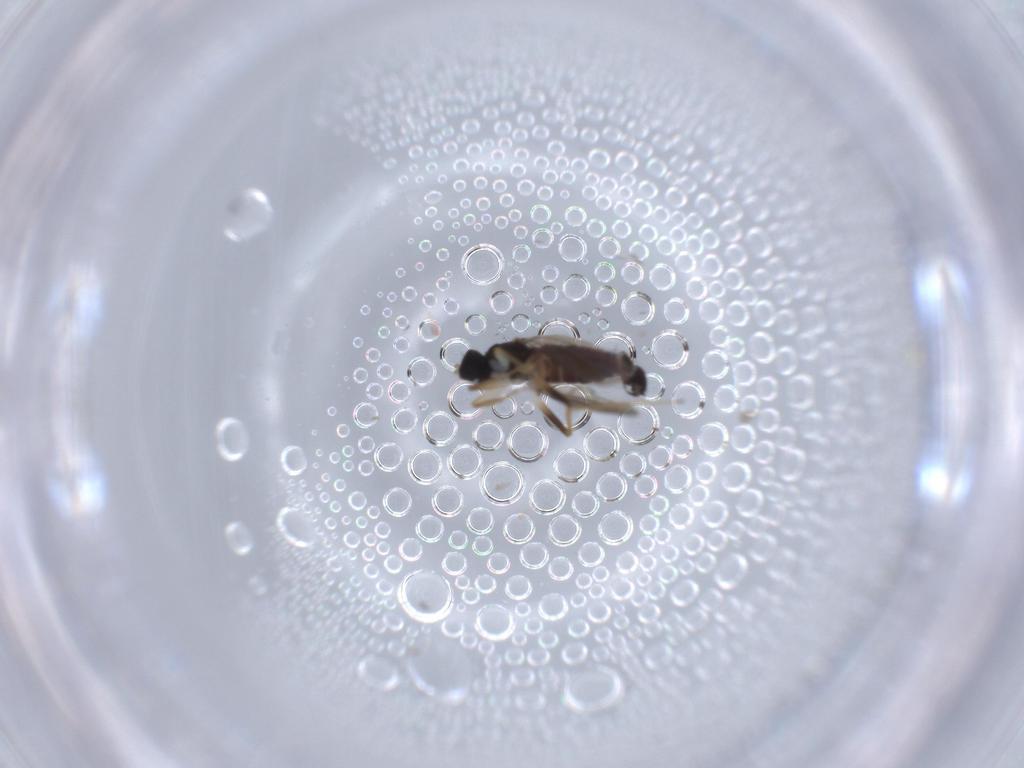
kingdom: Animalia
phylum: Arthropoda
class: Insecta
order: Diptera
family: Hybotidae
